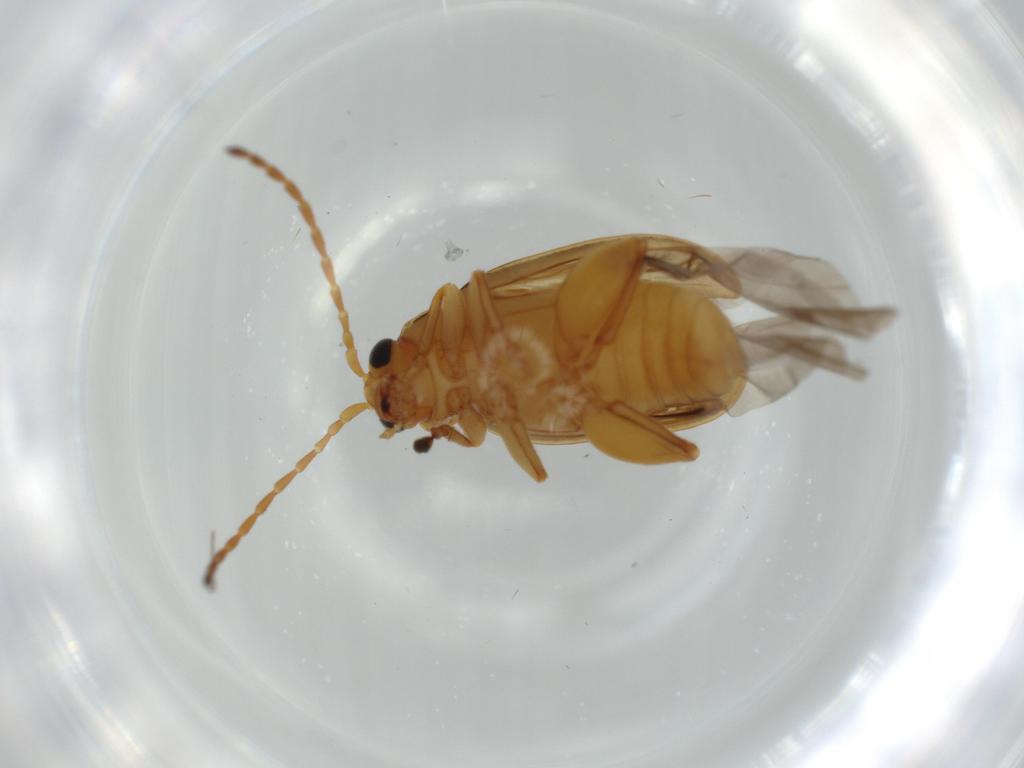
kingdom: Animalia
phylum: Arthropoda
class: Insecta
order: Coleoptera
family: Chrysomelidae
